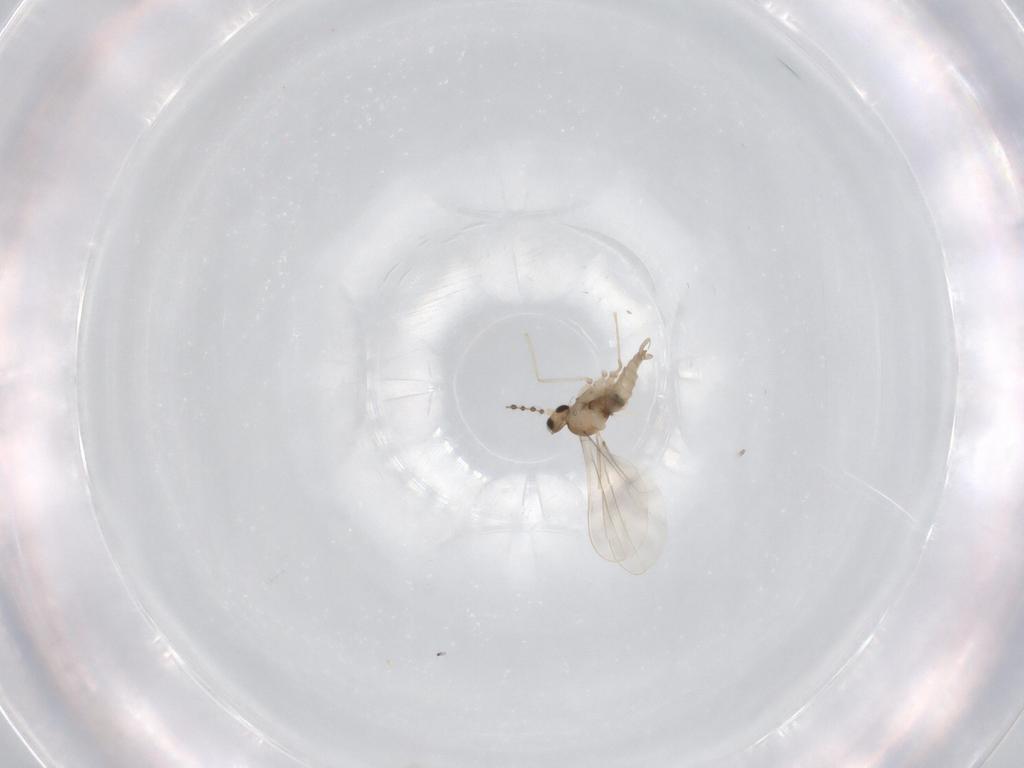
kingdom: Animalia
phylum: Arthropoda
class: Insecta
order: Diptera
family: Cecidomyiidae
